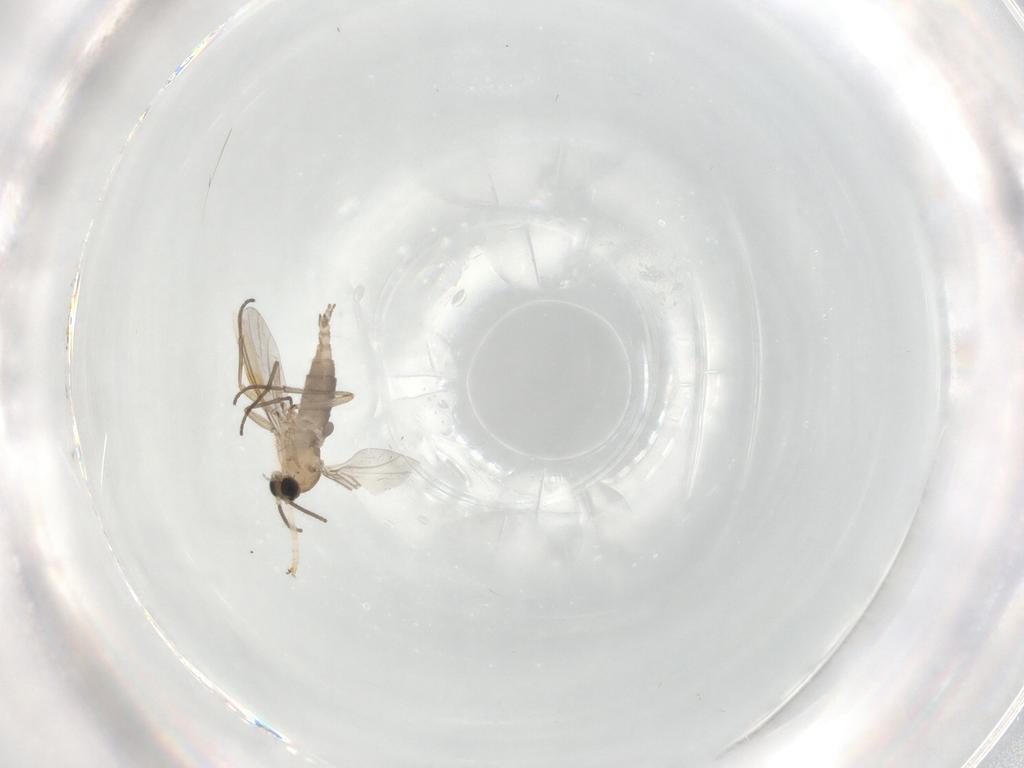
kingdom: Animalia
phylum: Arthropoda
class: Insecta
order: Diptera
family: Stratiomyidae
